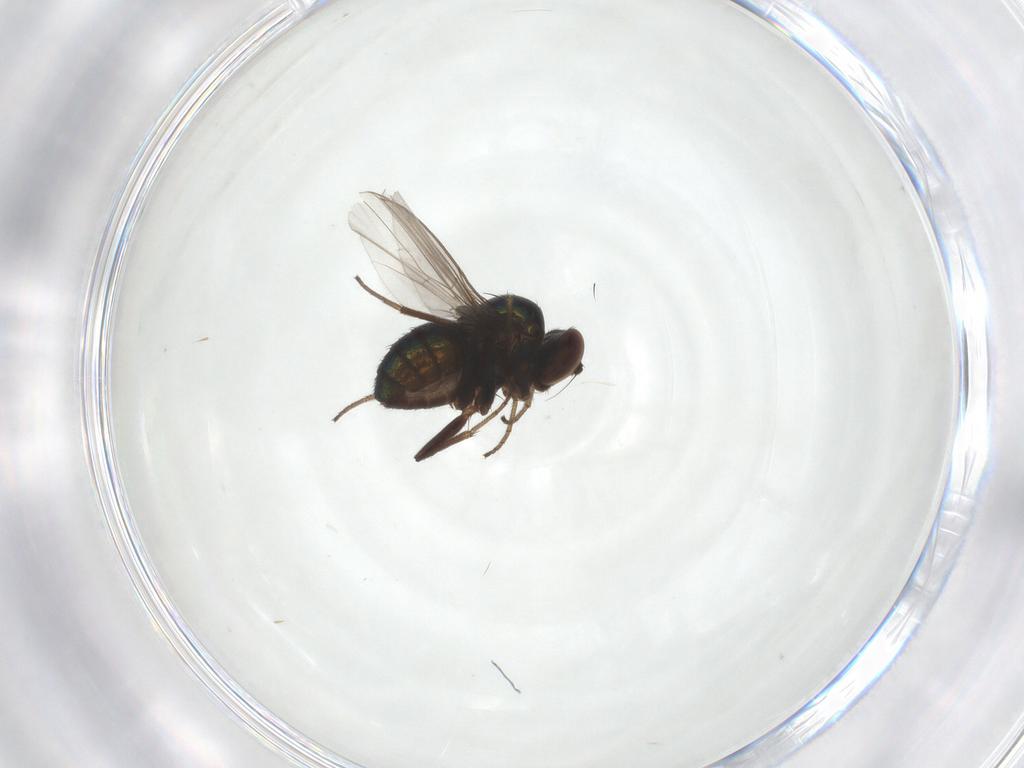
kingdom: Animalia
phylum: Arthropoda
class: Insecta
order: Diptera
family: Dolichopodidae
